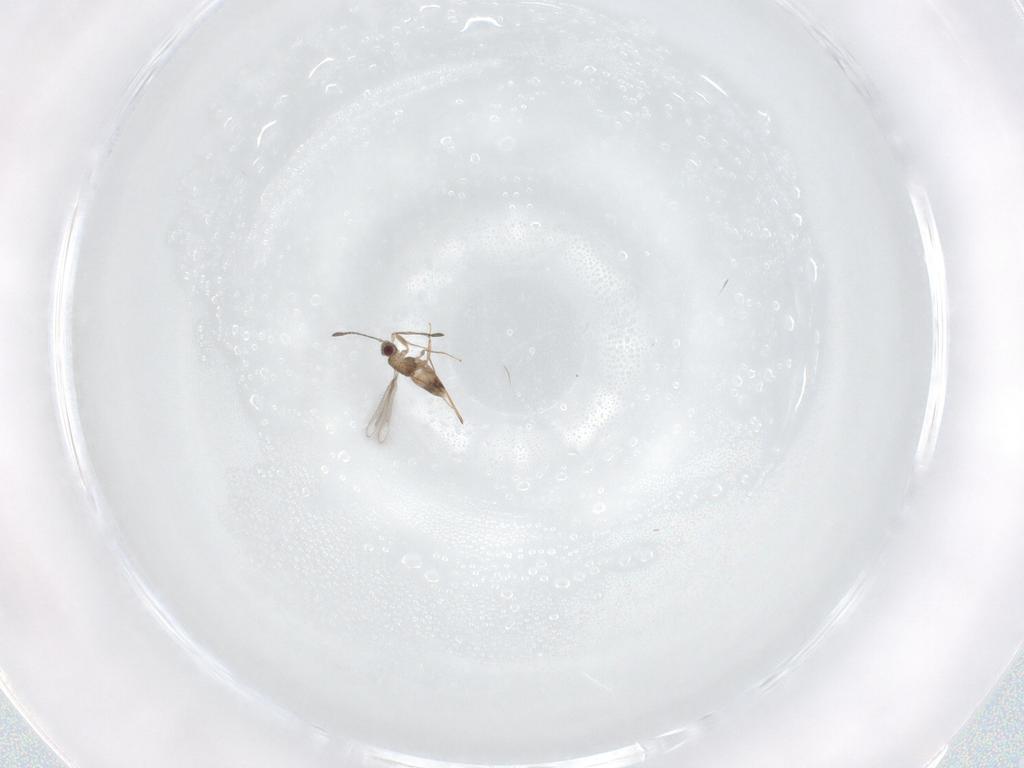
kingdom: Animalia
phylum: Arthropoda
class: Insecta
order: Hymenoptera
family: Mymaridae
